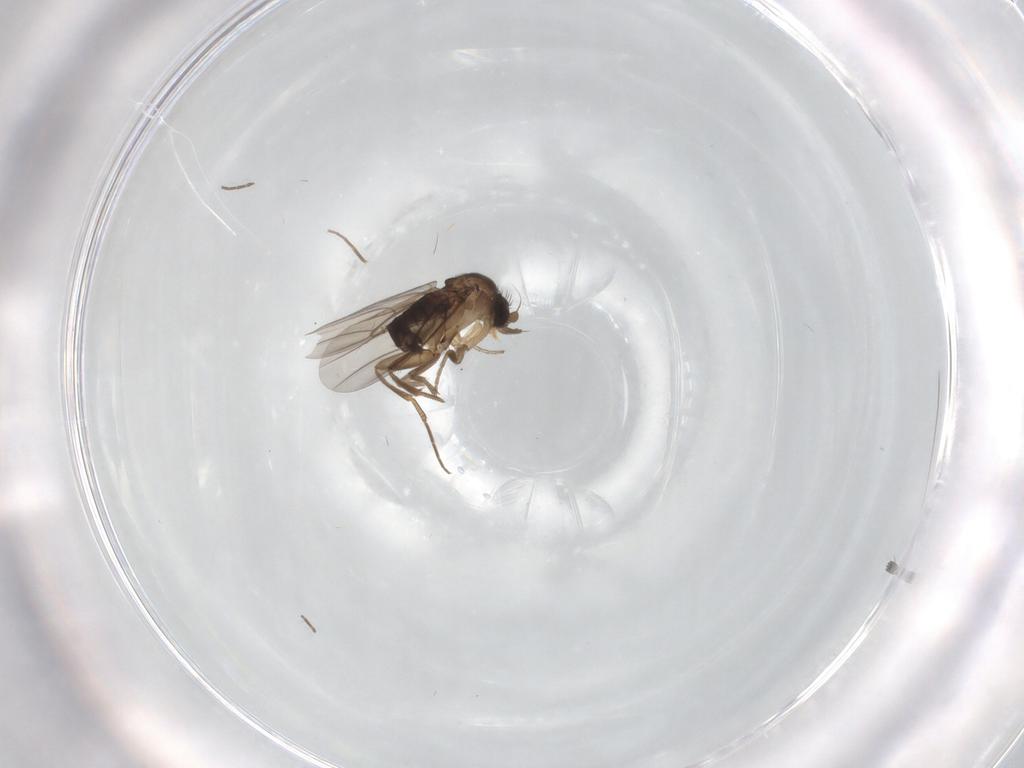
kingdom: Animalia
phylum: Arthropoda
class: Insecta
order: Diptera
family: Phoridae
